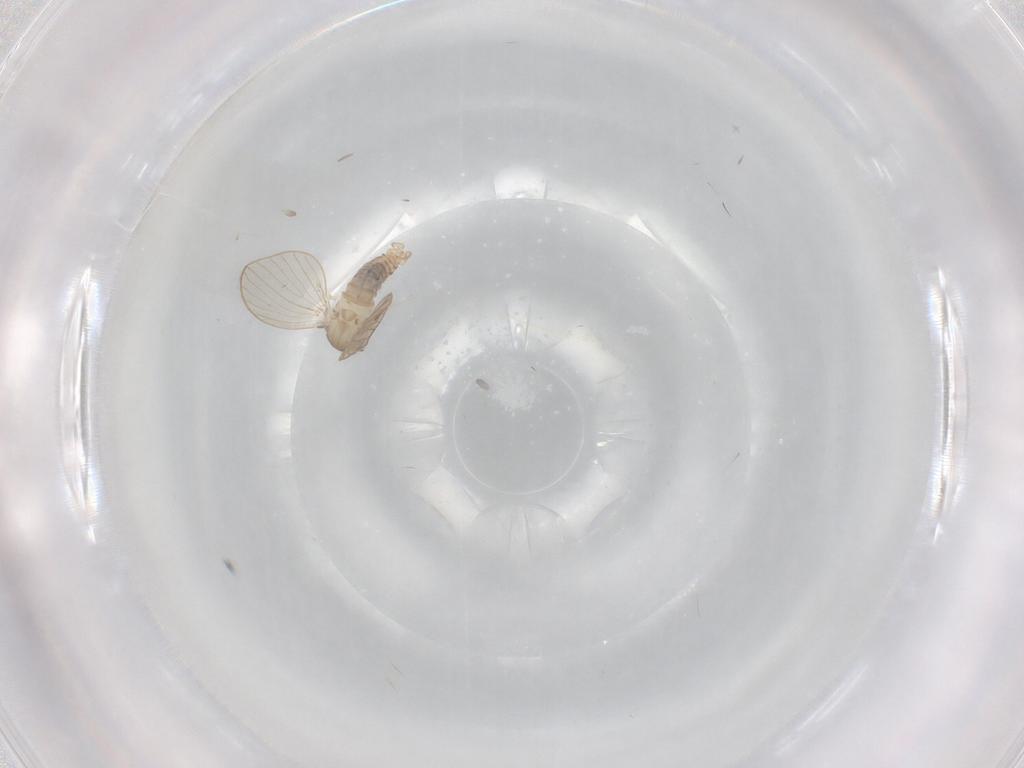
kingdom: Animalia
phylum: Arthropoda
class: Insecta
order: Diptera
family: Psychodidae
